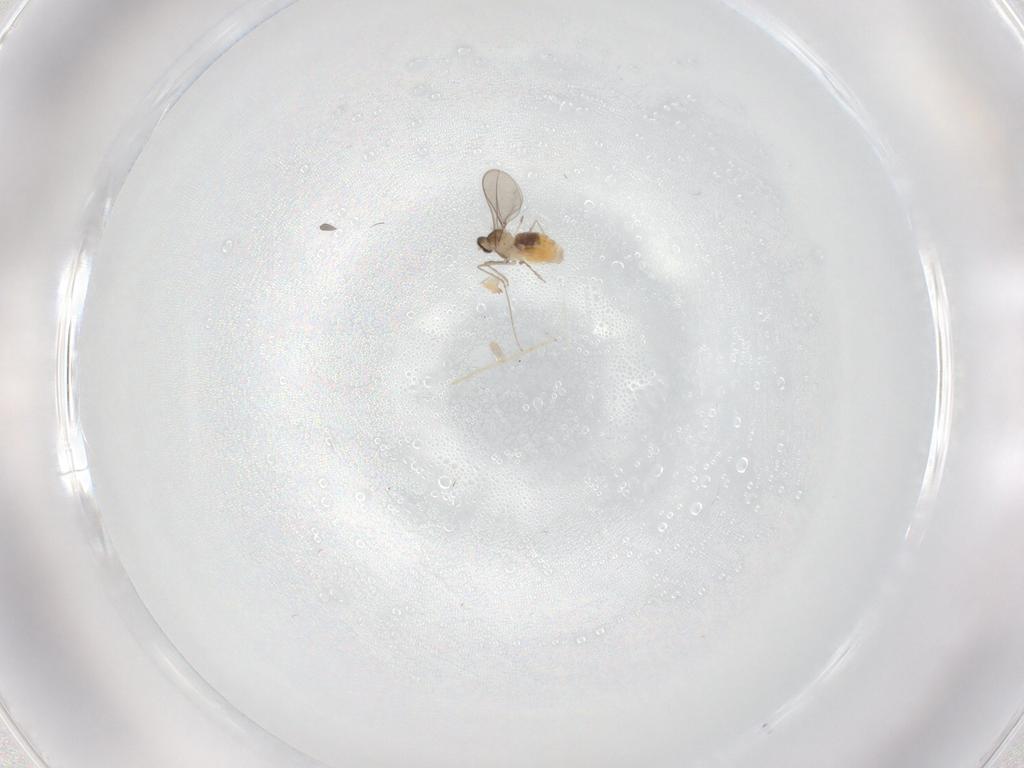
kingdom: Animalia
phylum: Arthropoda
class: Insecta
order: Diptera
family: Cecidomyiidae
